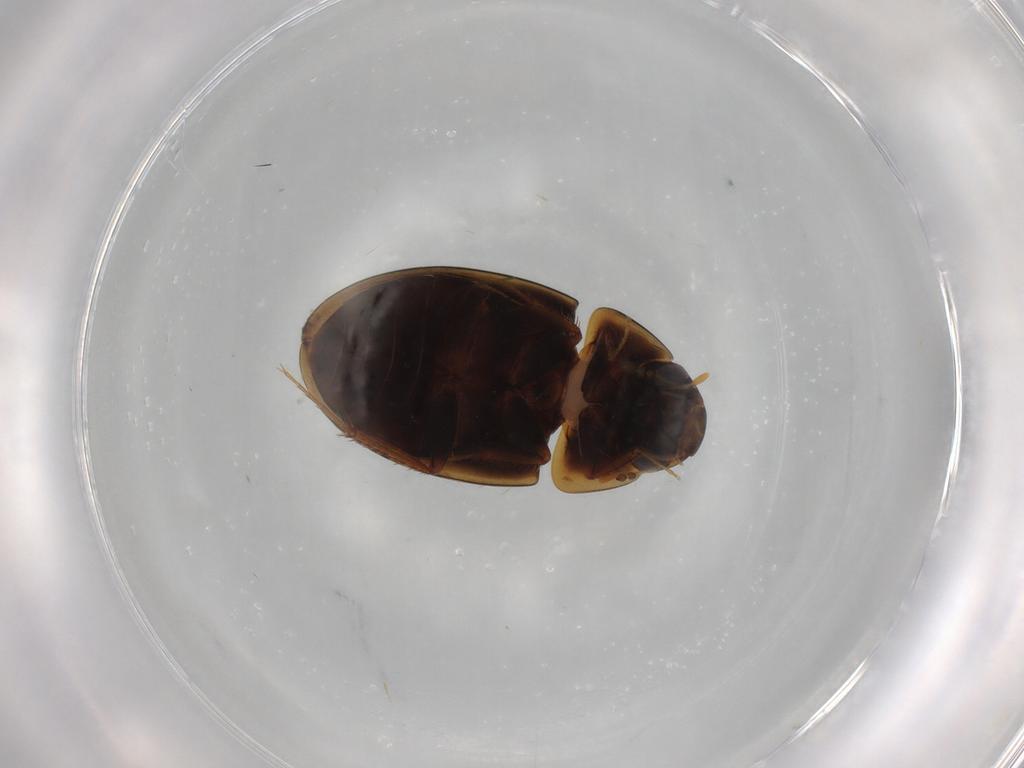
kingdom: Animalia
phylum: Arthropoda
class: Insecta
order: Coleoptera
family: Hydrophilidae
